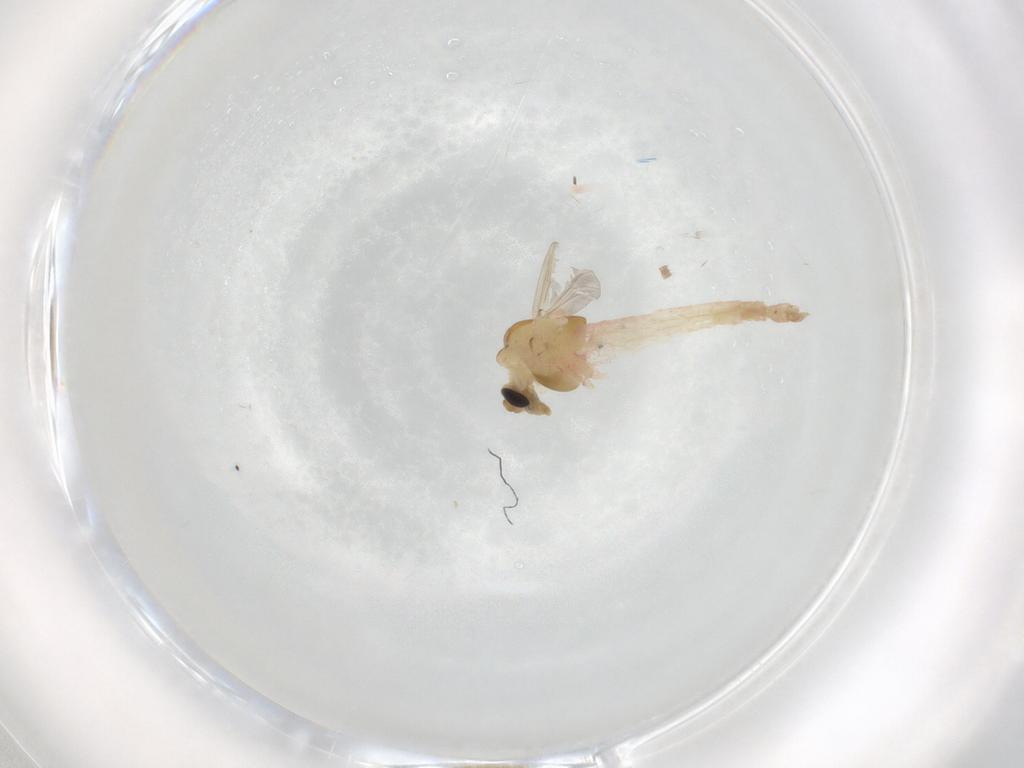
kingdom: Animalia
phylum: Arthropoda
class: Insecta
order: Diptera
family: Chironomidae
